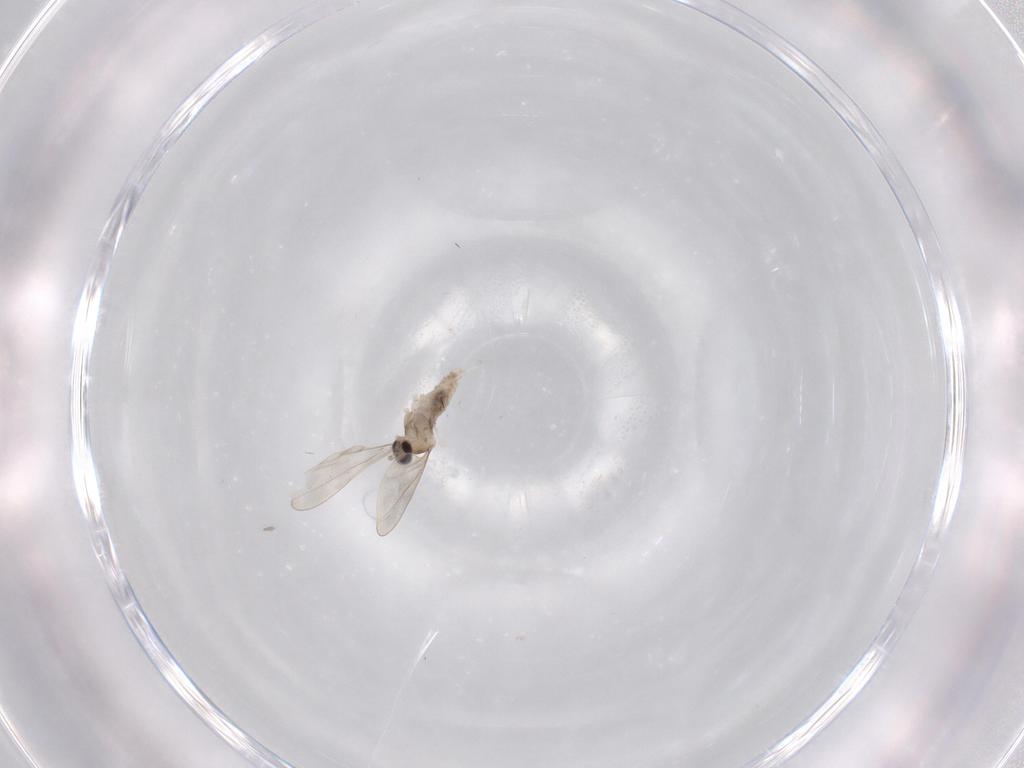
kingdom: Animalia
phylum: Arthropoda
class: Insecta
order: Diptera
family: Cecidomyiidae
